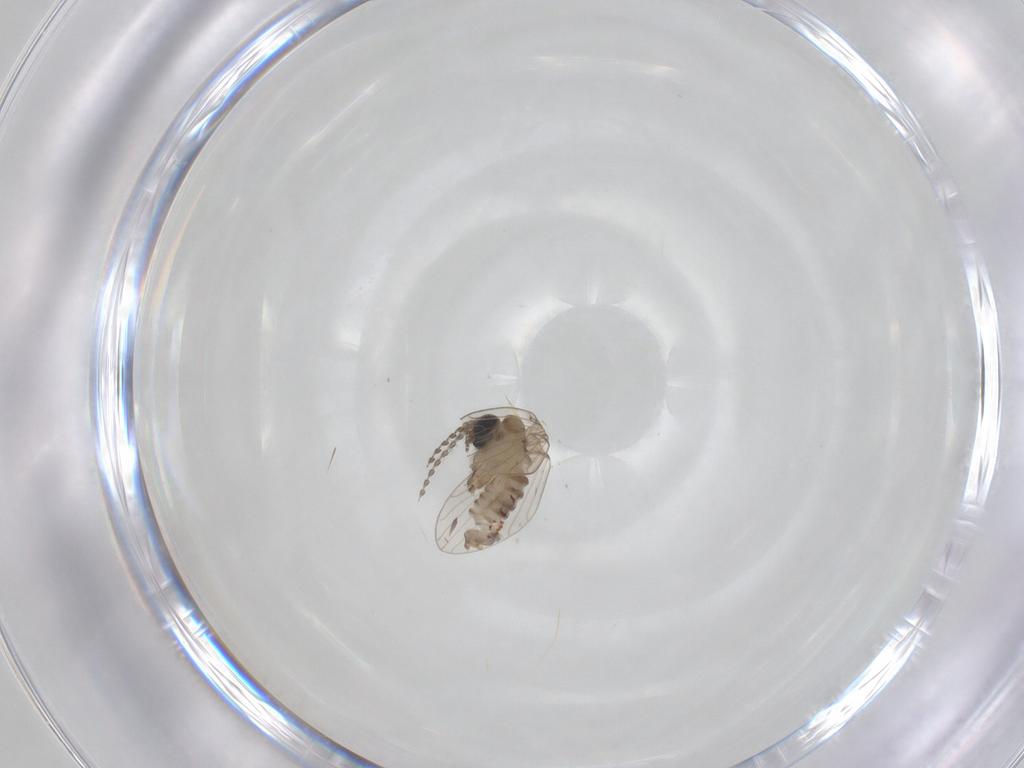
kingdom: Animalia
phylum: Arthropoda
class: Insecta
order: Diptera
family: Psychodidae
